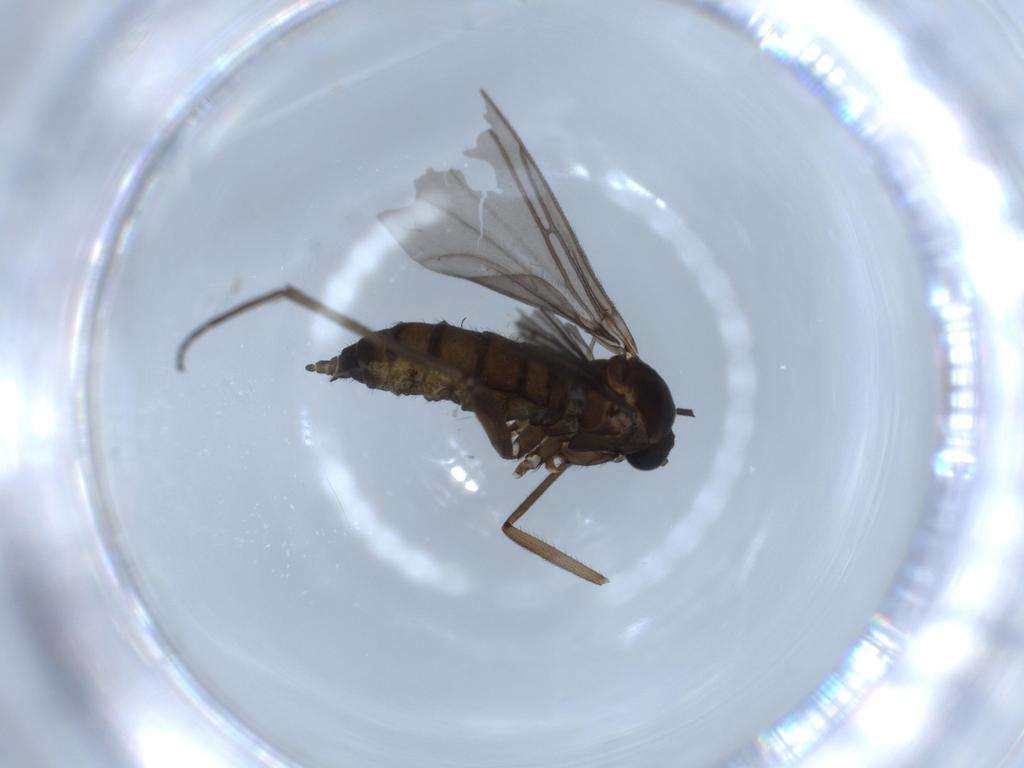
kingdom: Animalia
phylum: Arthropoda
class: Insecta
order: Diptera
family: Sciaridae
